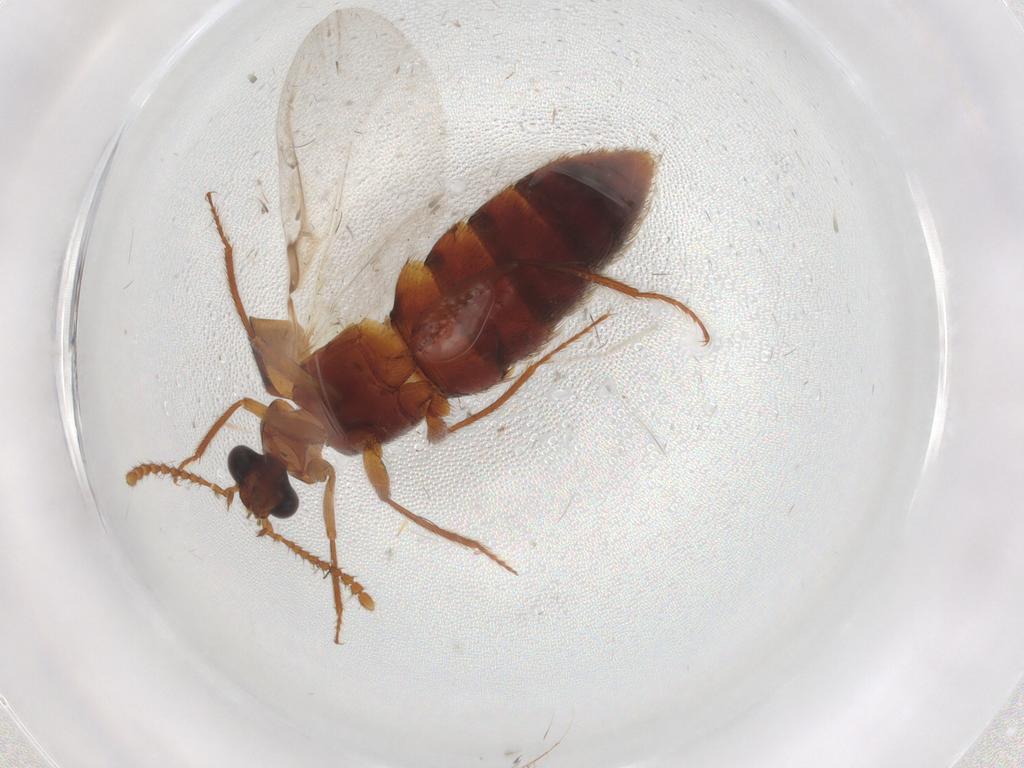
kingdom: Animalia
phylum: Arthropoda
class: Insecta
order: Coleoptera
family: Staphylinidae
